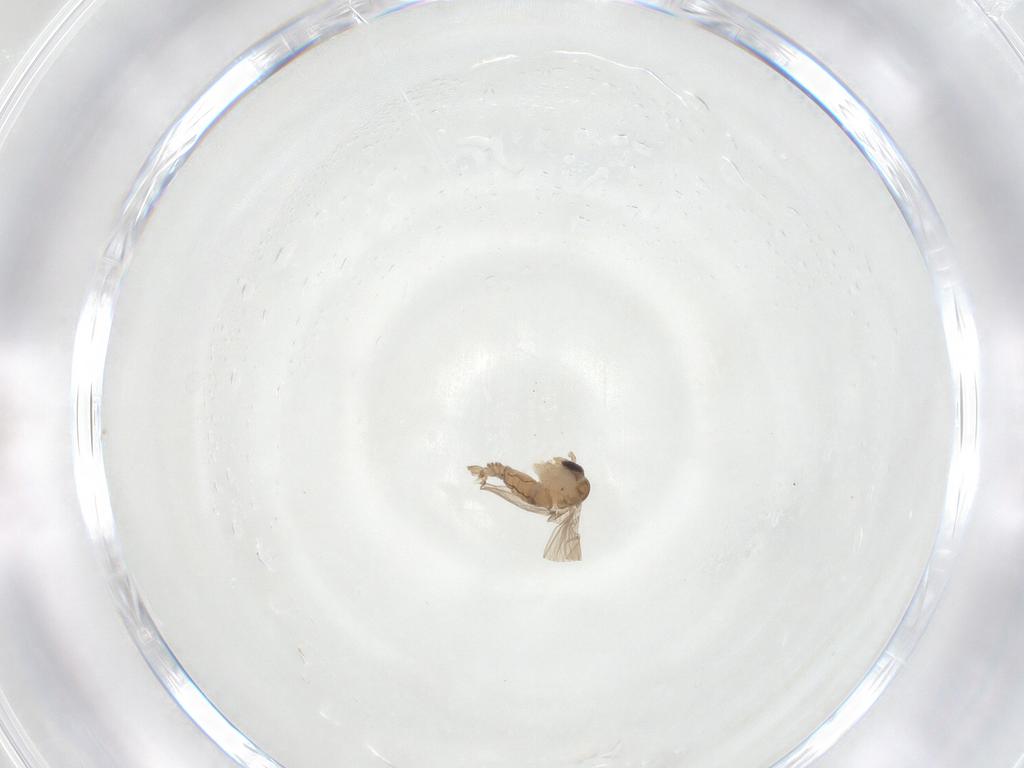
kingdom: Animalia
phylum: Arthropoda
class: Insecta
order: Diptera
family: Psychodidae
